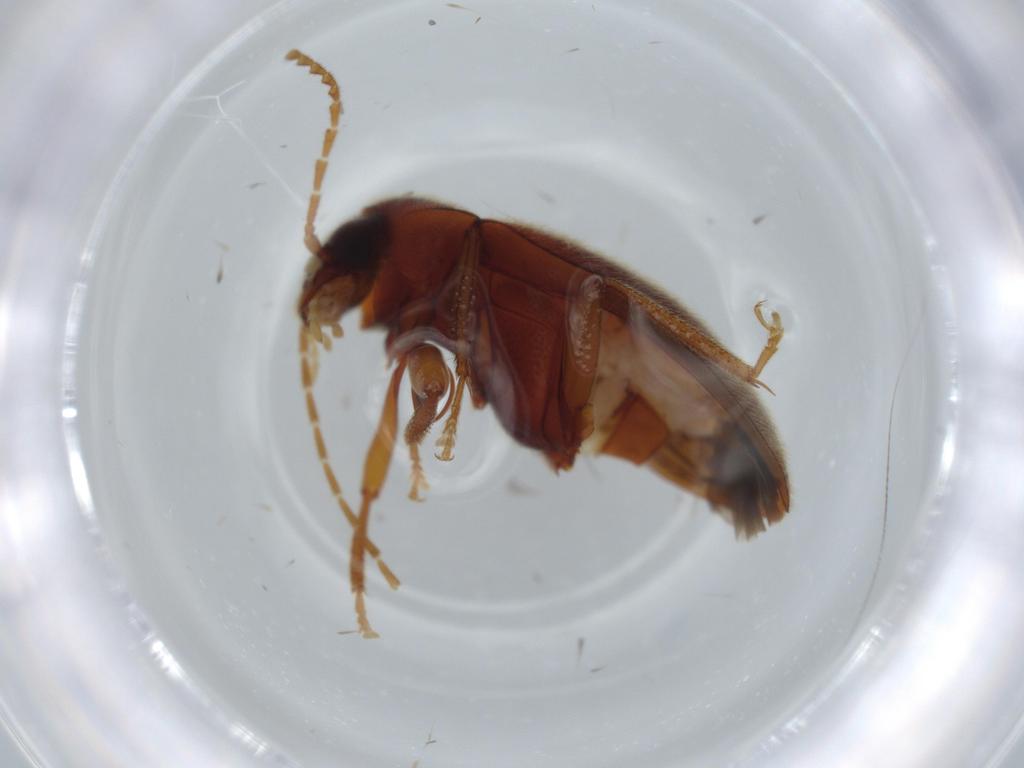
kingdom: Animalia
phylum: Arthropoda
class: Insecta
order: Coleoptera
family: Ptilodactylidae
